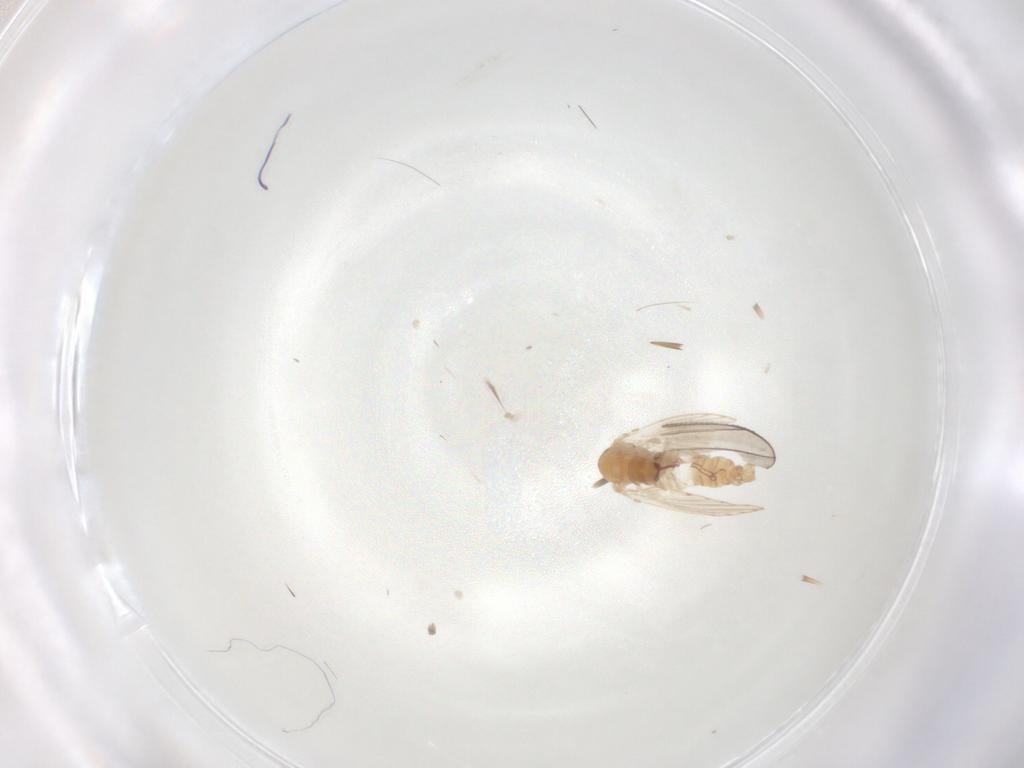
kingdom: Animalia
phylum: Arthropoda
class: Insecta
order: Diptera
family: Psychodidae
